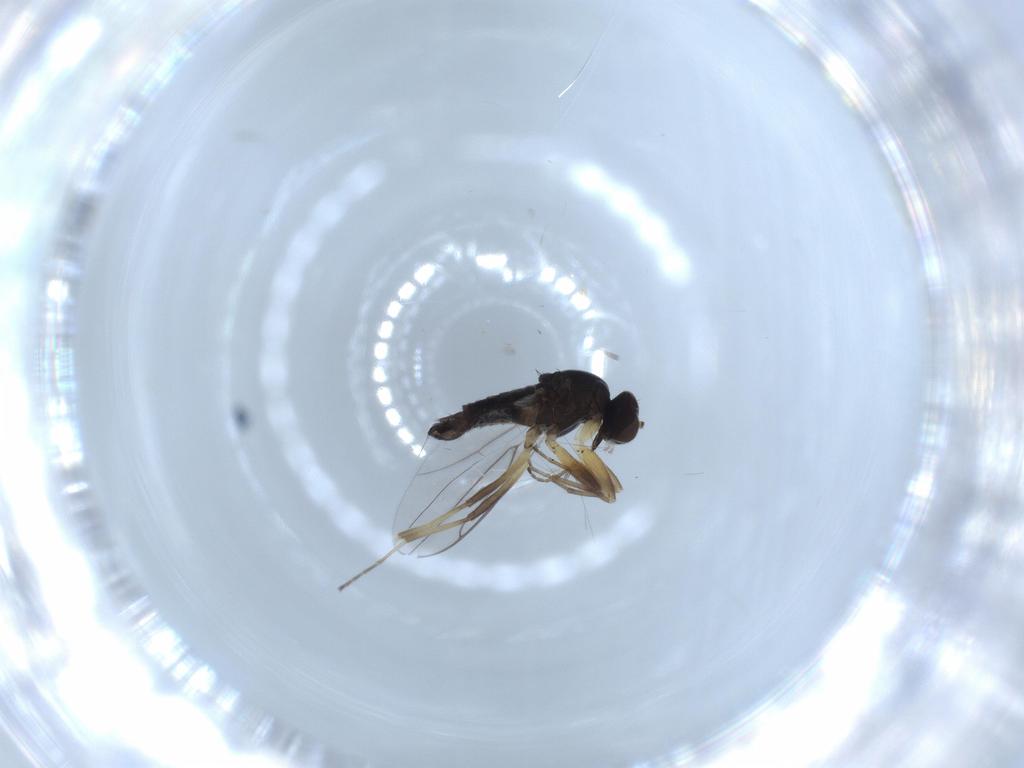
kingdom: Animalia
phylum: Arthropoda
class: Insecta
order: Diptera
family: Hybotidae
